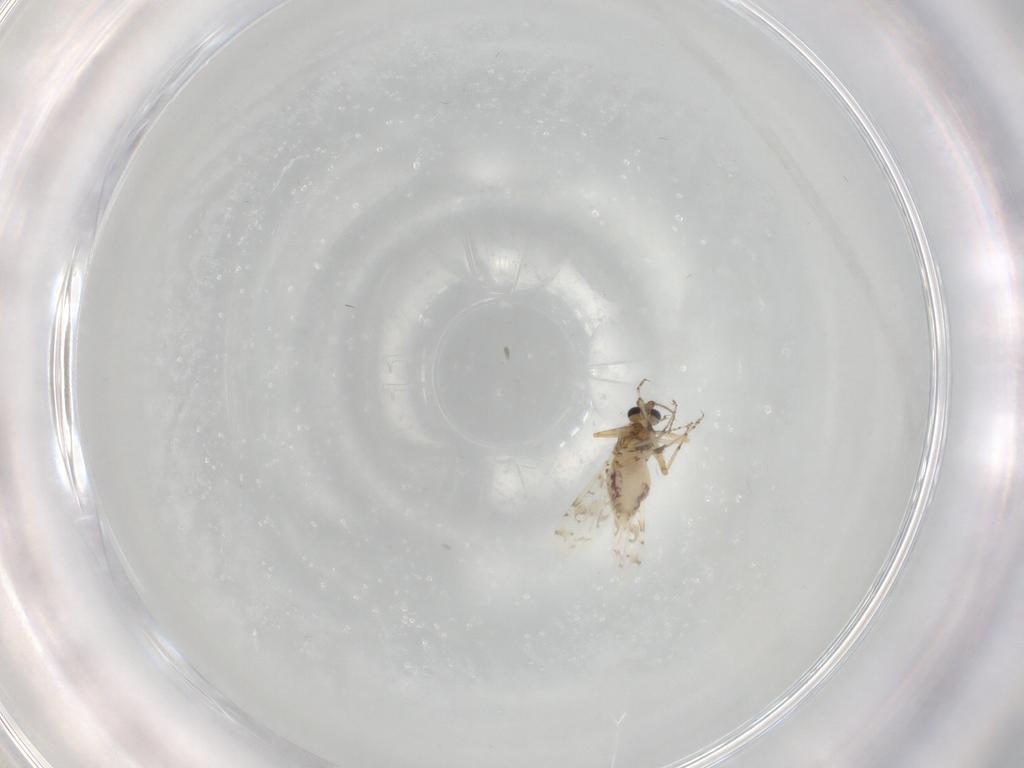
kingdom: Animalia
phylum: Arthropoda
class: Insecta
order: Diptera
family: Ceratopogonidae
